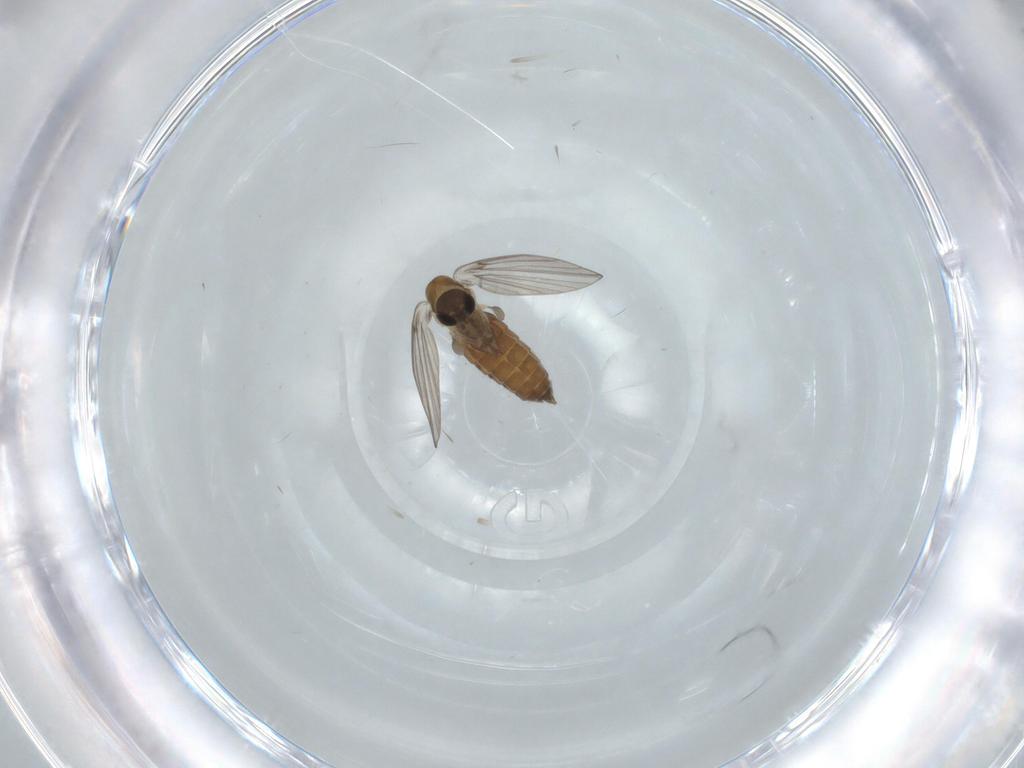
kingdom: Animalia
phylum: Arthropoda
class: Insecta
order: Diptera
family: Psychodidae
